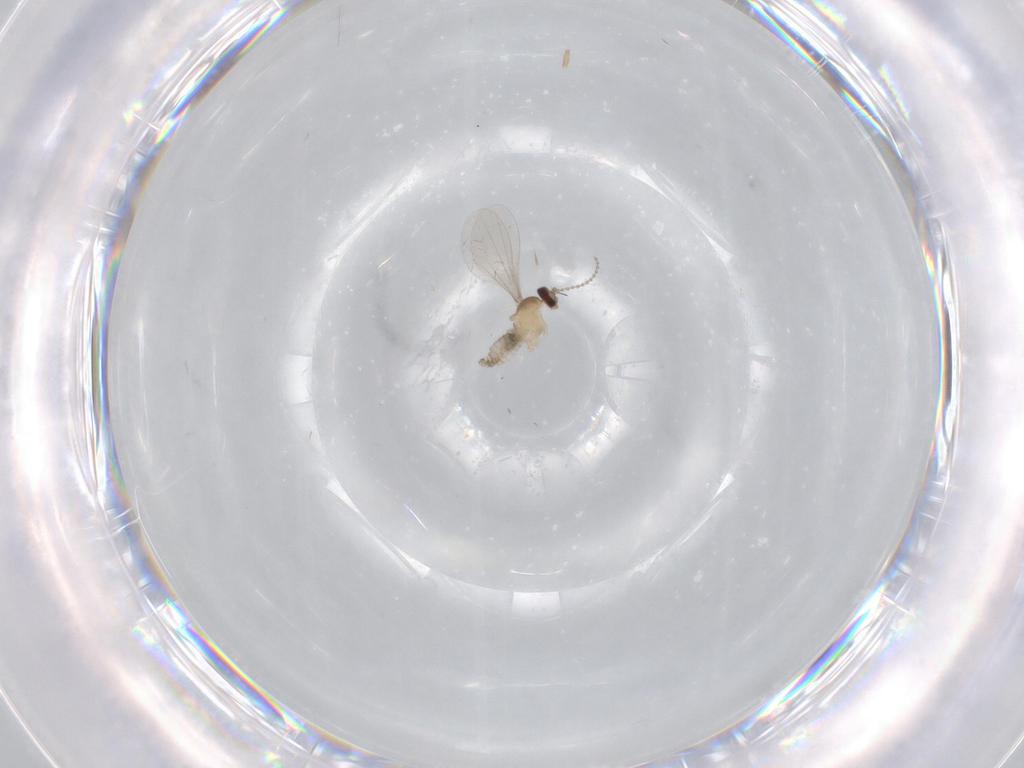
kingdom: Animalia
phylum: Arthropoda
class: Insecta
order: Diptera
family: Cecidomyiidae
